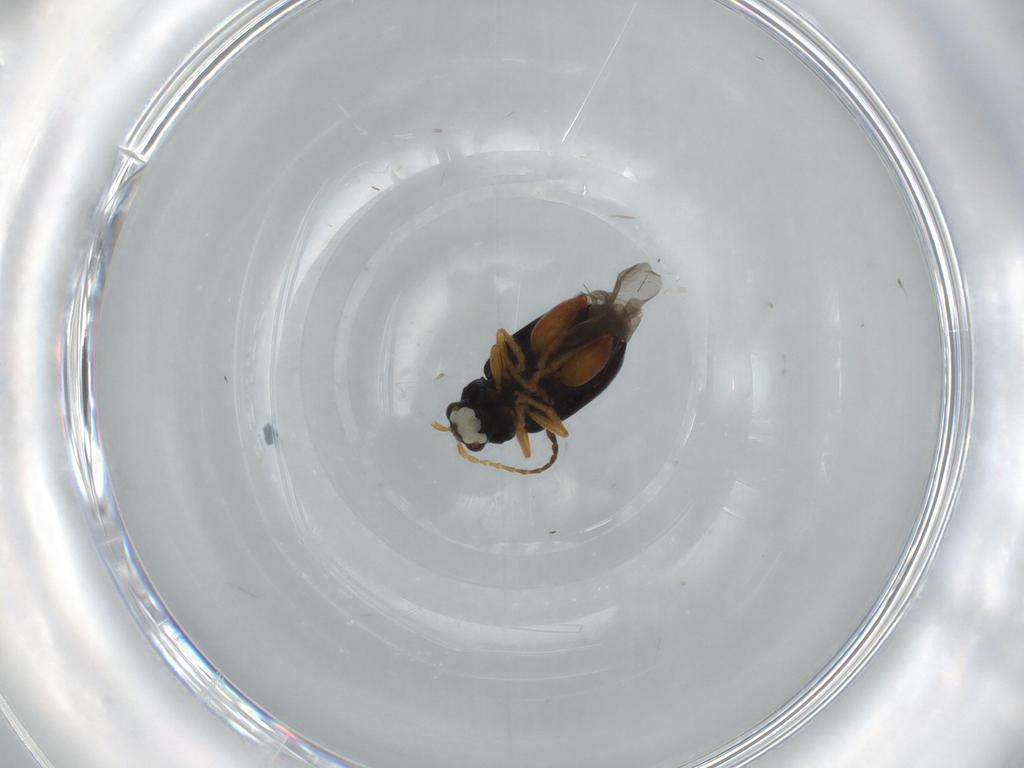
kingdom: Animalia
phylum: Arthropoda
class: Insecta
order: Coleoptera
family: Chrysomelidae
